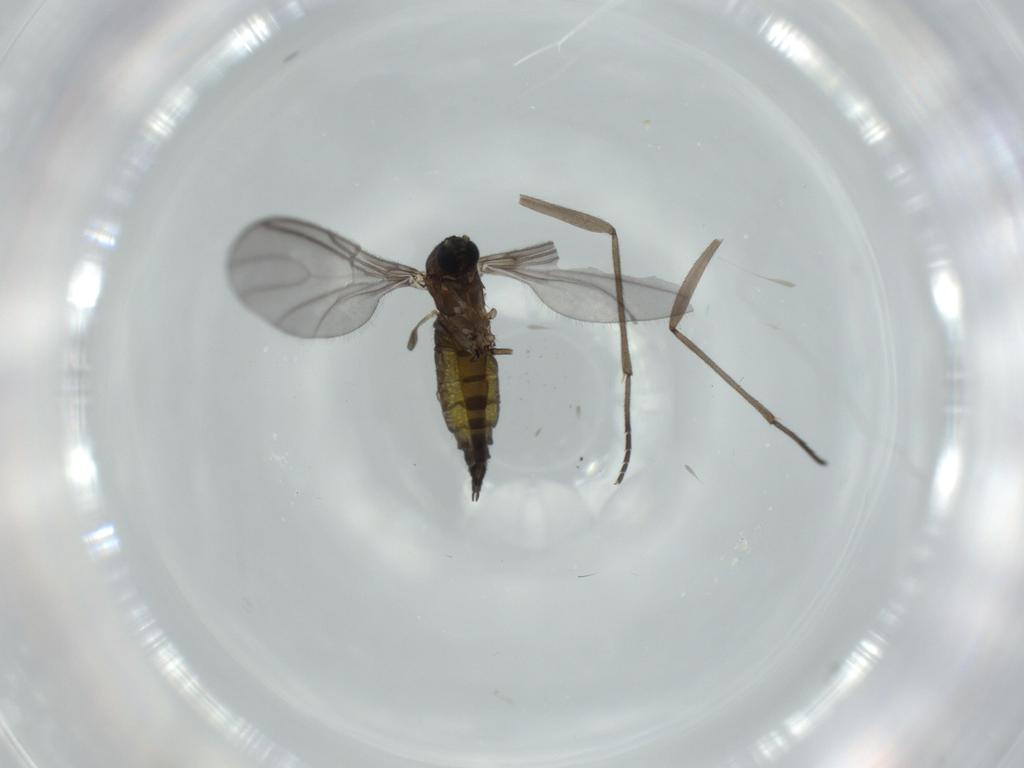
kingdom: Animalia
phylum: Arthropoda
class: Insecta
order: Diptera
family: Sciaridae
